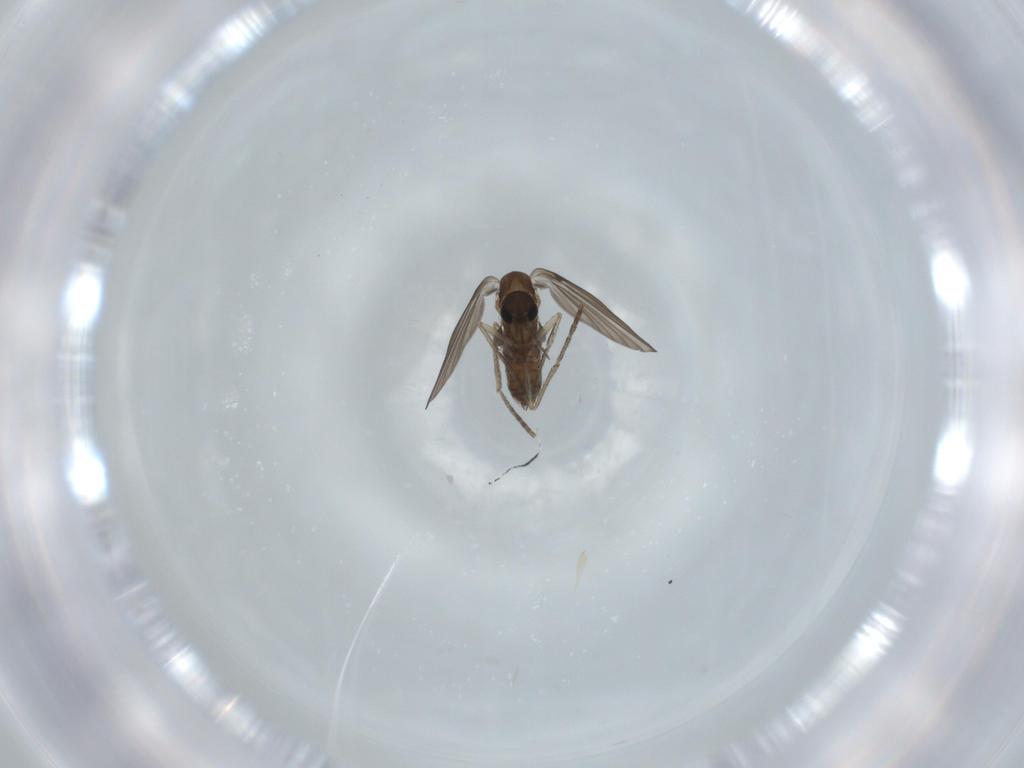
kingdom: Animalia
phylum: Arthropoda
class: Insecta
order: Diptera
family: Psychodidae
